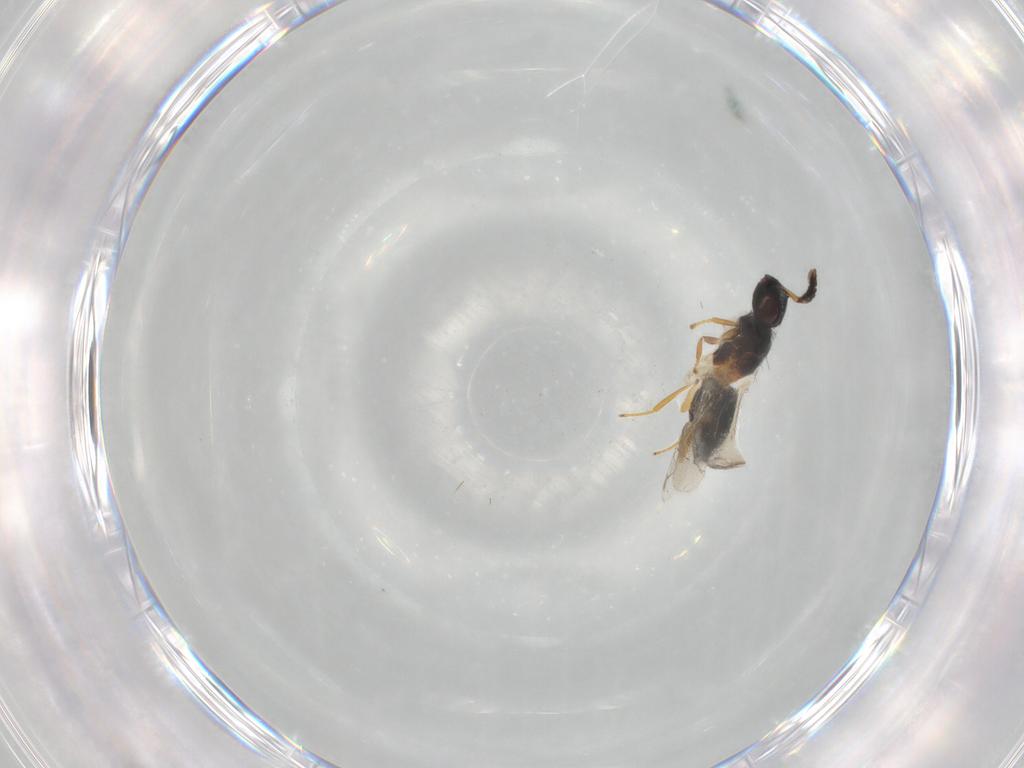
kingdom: Animalia
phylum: Arthropoda
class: Insecta
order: Hymenoptera
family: Eulophidae
